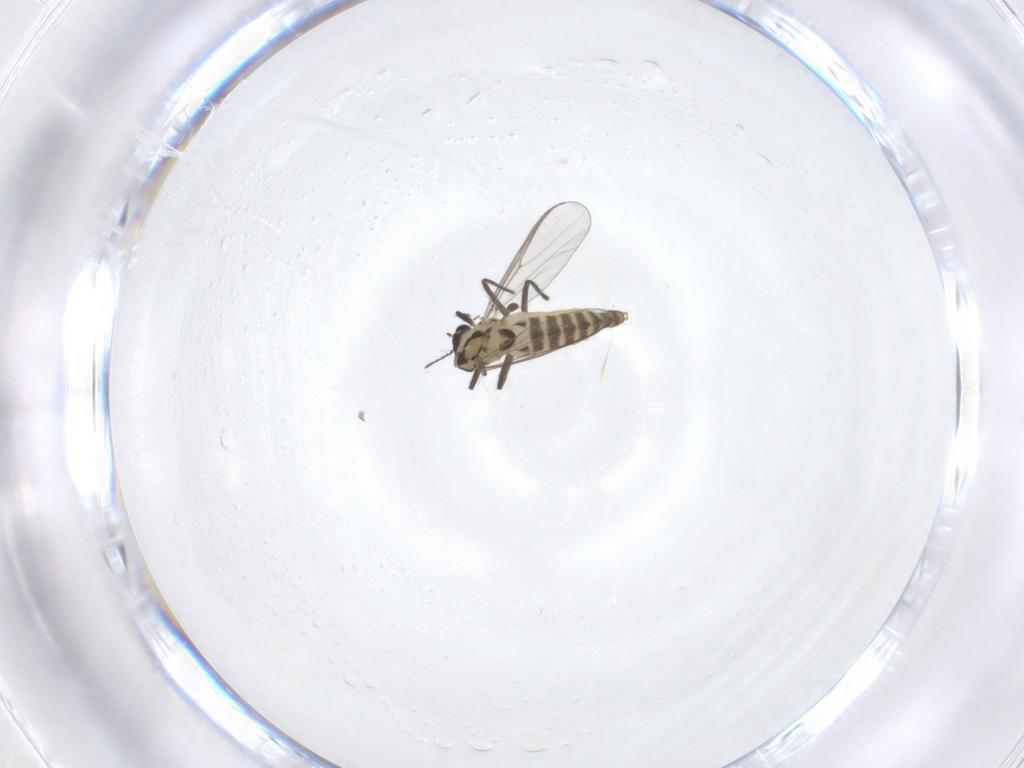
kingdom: Animalia
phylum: Arthropoda
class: Insecta
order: Diptera
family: Chironomidae
